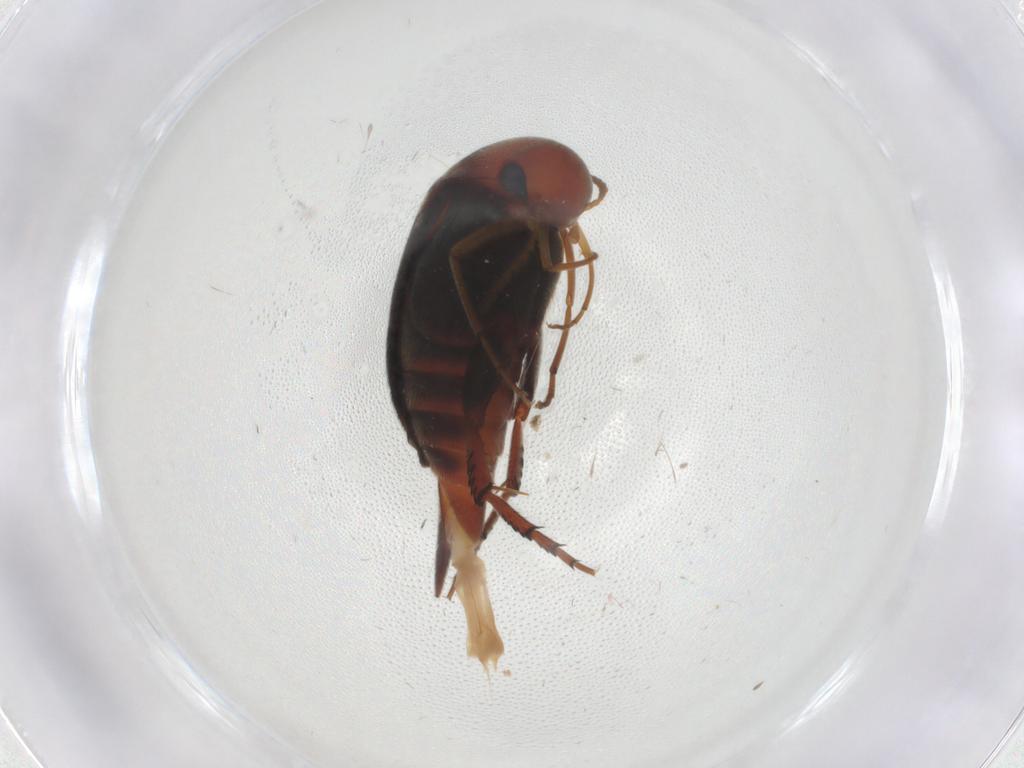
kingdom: Animalia
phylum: Arthropoda
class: Insecta
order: Coleoptera
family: Mordellidae
